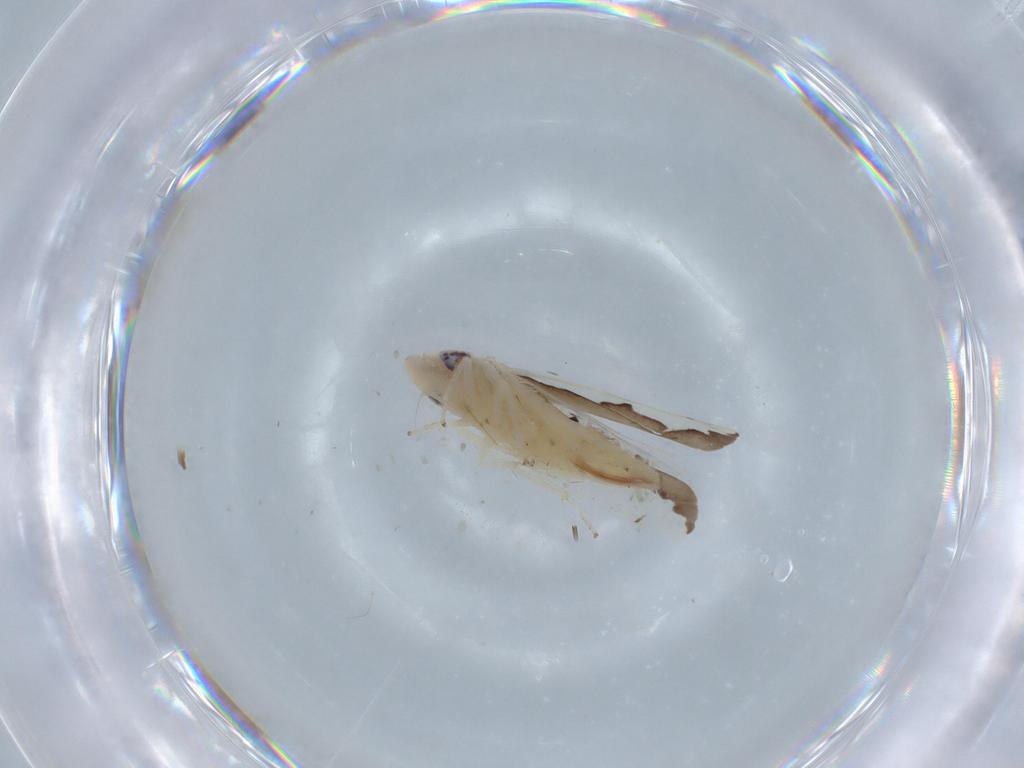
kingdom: Animalia
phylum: Arthropoda
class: Insecta
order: Hemiptera
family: Cicadellidae
